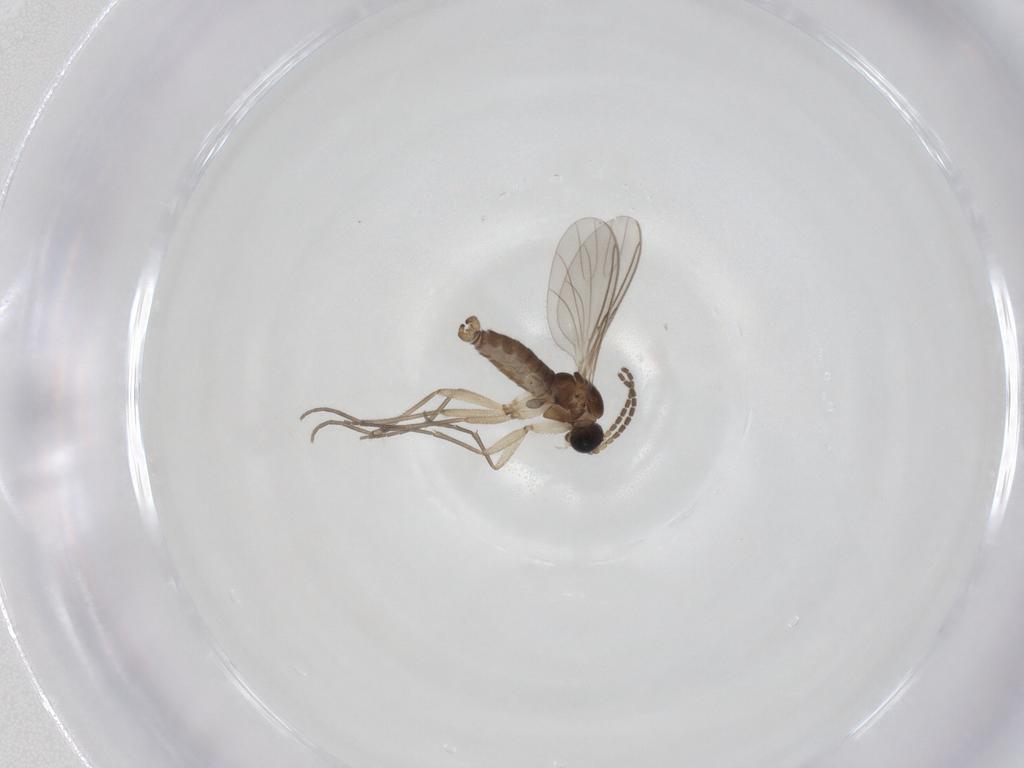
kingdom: Animalia
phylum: Arthropoda
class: Insecta
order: Diptera
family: Sciaridae
